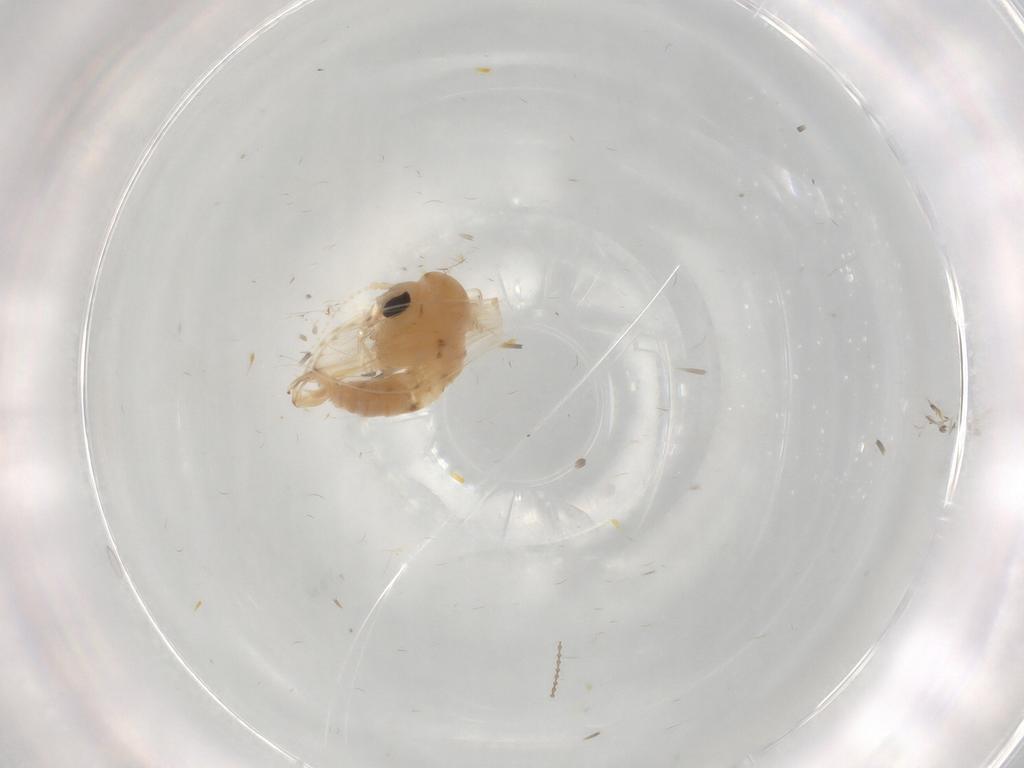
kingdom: Animalia
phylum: Arthropoda
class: Insecta
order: Diptera
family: Psychodidae
